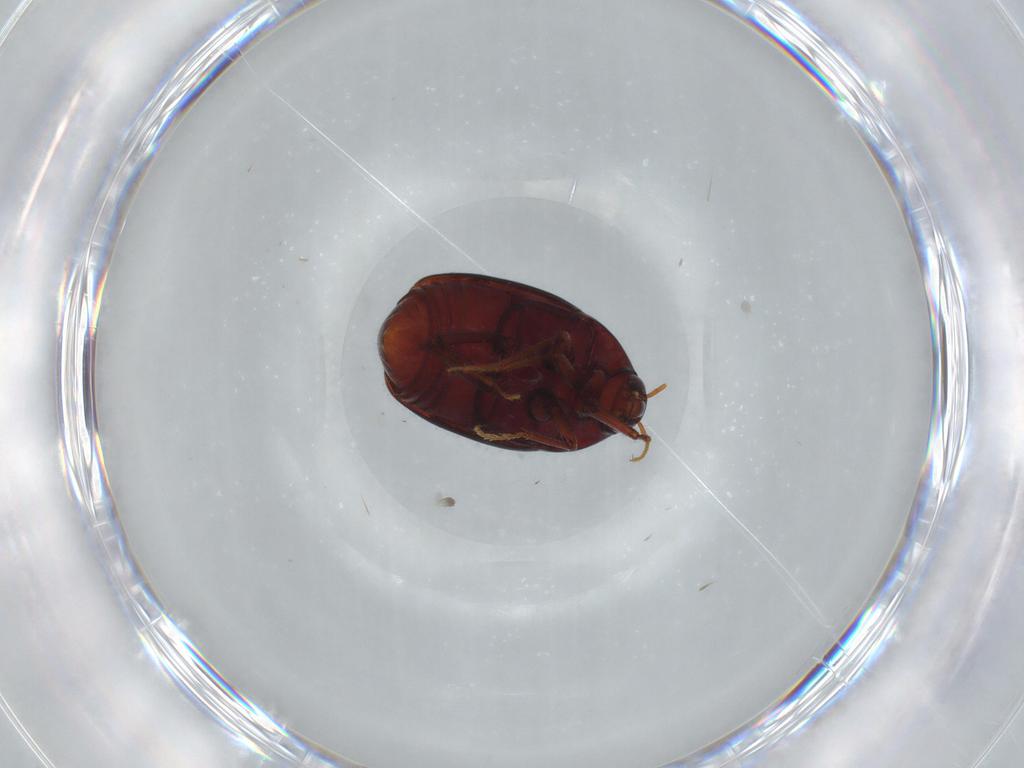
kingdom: Animalia
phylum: Arthropoda
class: Insecta
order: Coleoptera
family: Staphylinidae
